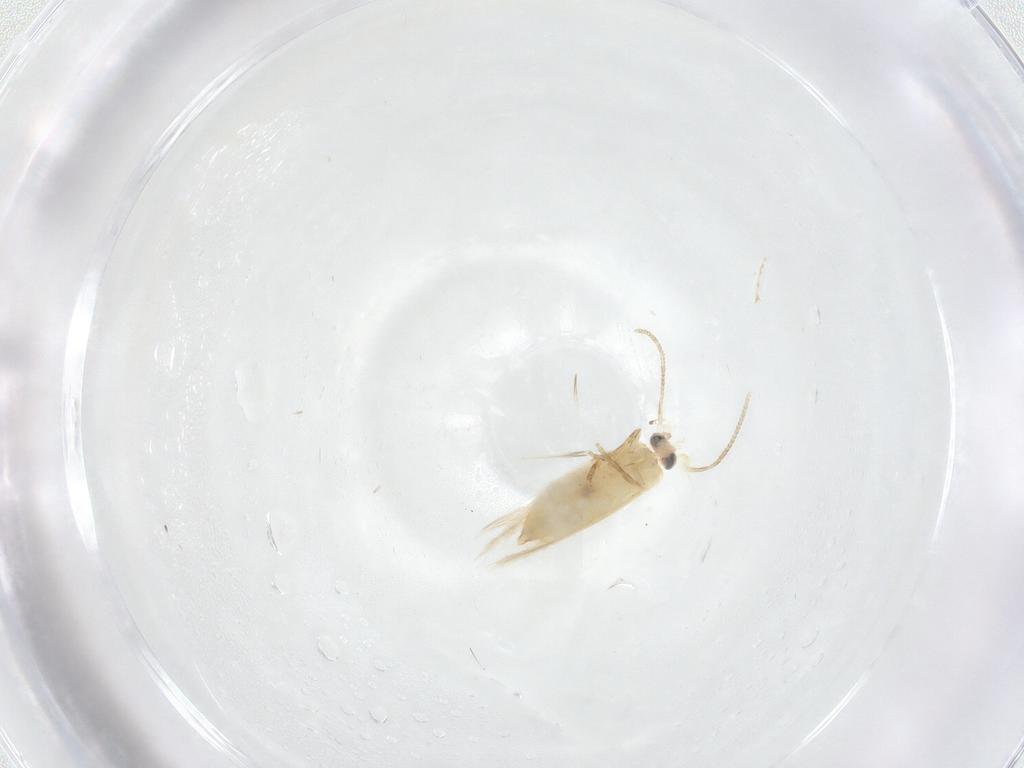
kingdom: Animalia
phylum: Arthropoda
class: Insecta
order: Lepidoptera
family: Nepticulidae
